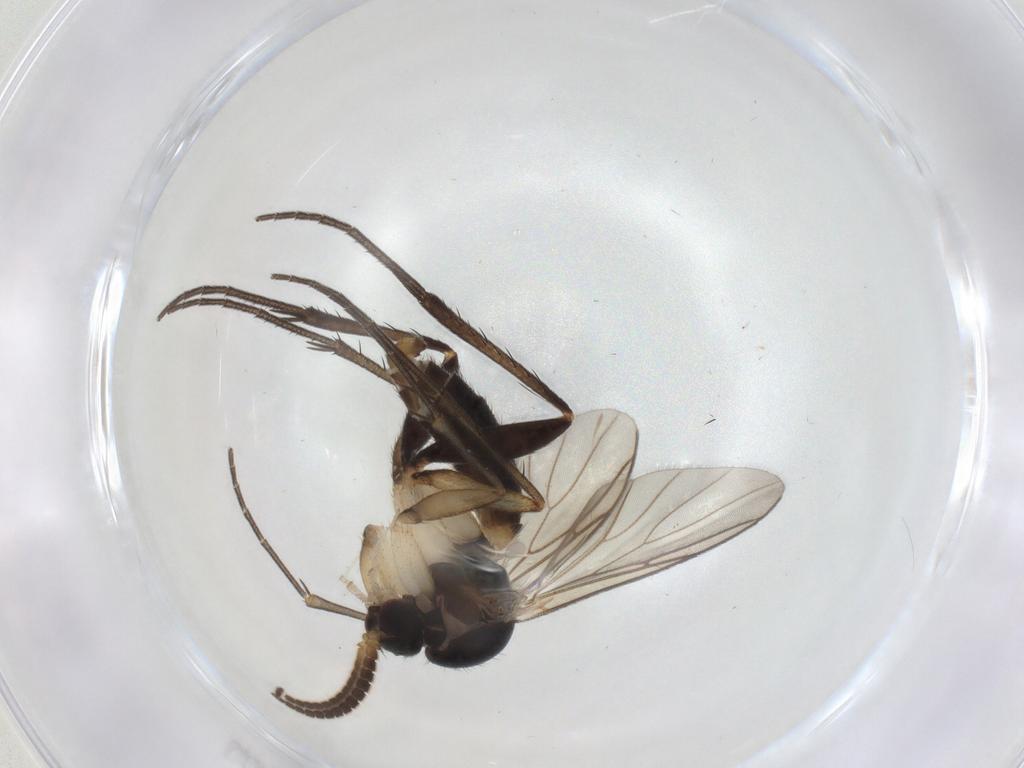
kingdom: Animalia
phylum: Arthropoda
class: Insecta
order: Diptera
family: Mycetophilidae
